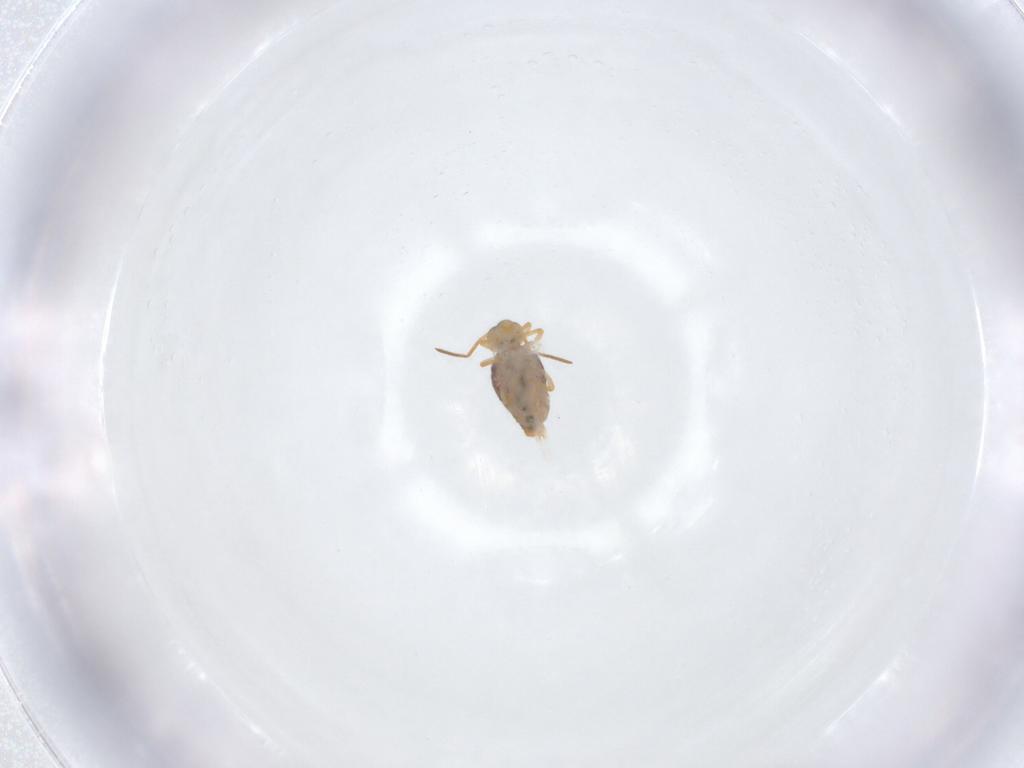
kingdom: Animalia
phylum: Arthropoda
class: Collembola
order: Symphypleona
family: Katiannidae
